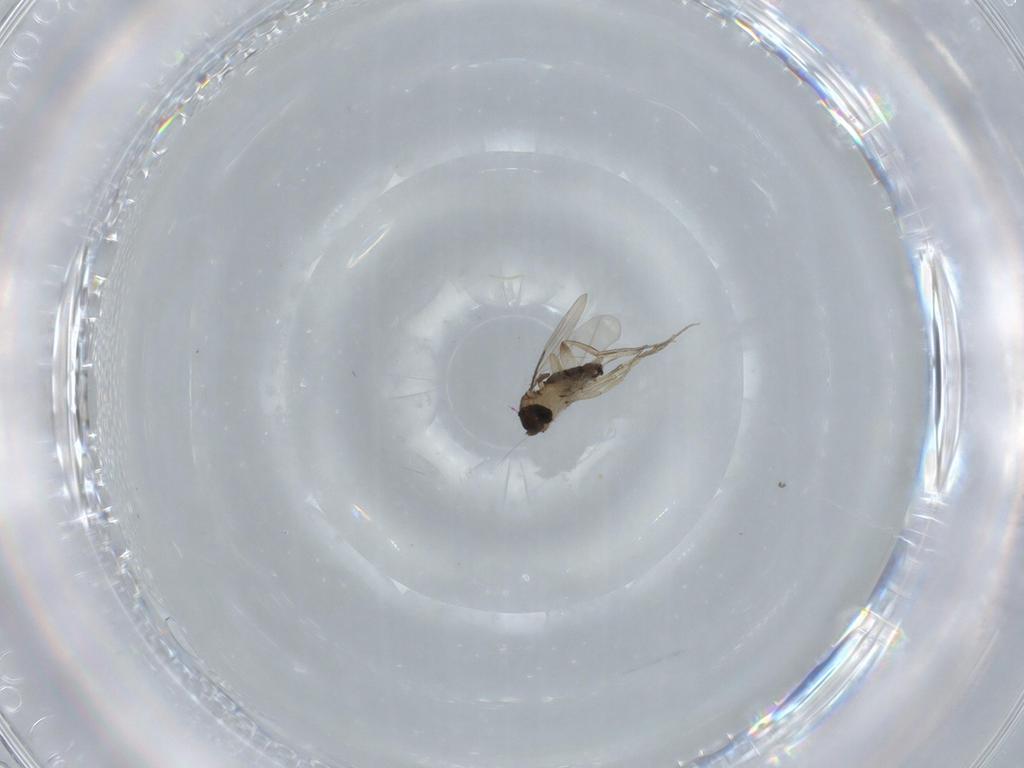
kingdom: Animalia
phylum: Arthropoda
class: Insecta
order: Diptera
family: Phoridae
